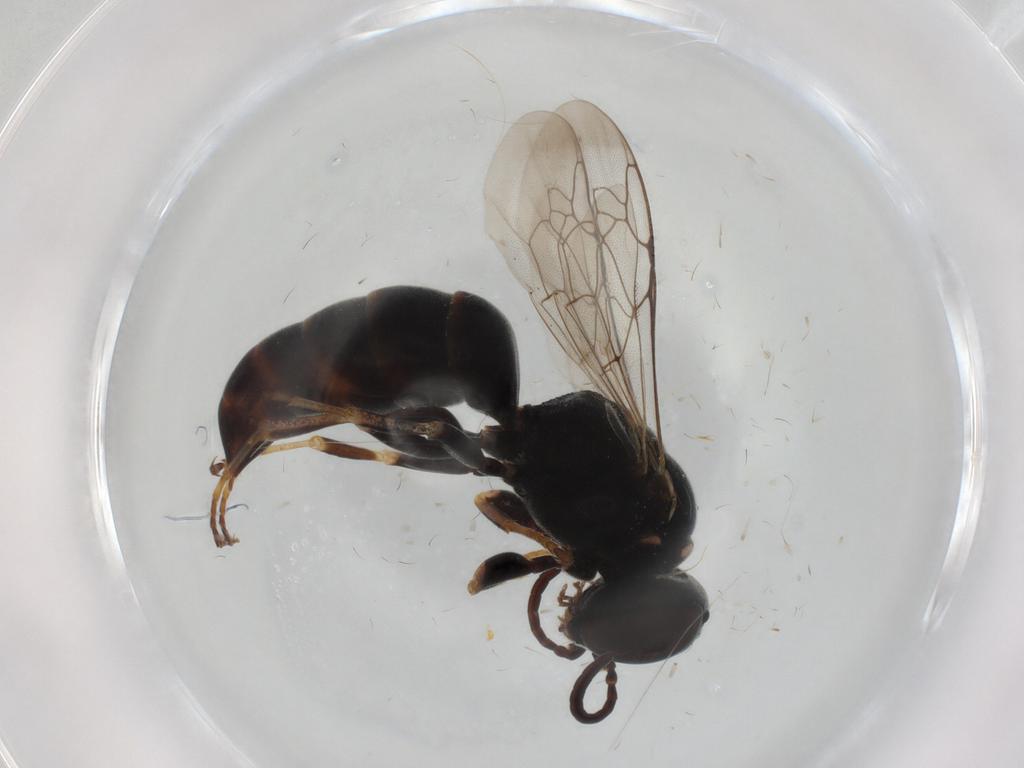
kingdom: Animalia
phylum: Arthropoda
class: Insecta
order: Hymenoptera
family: Crabronidae
